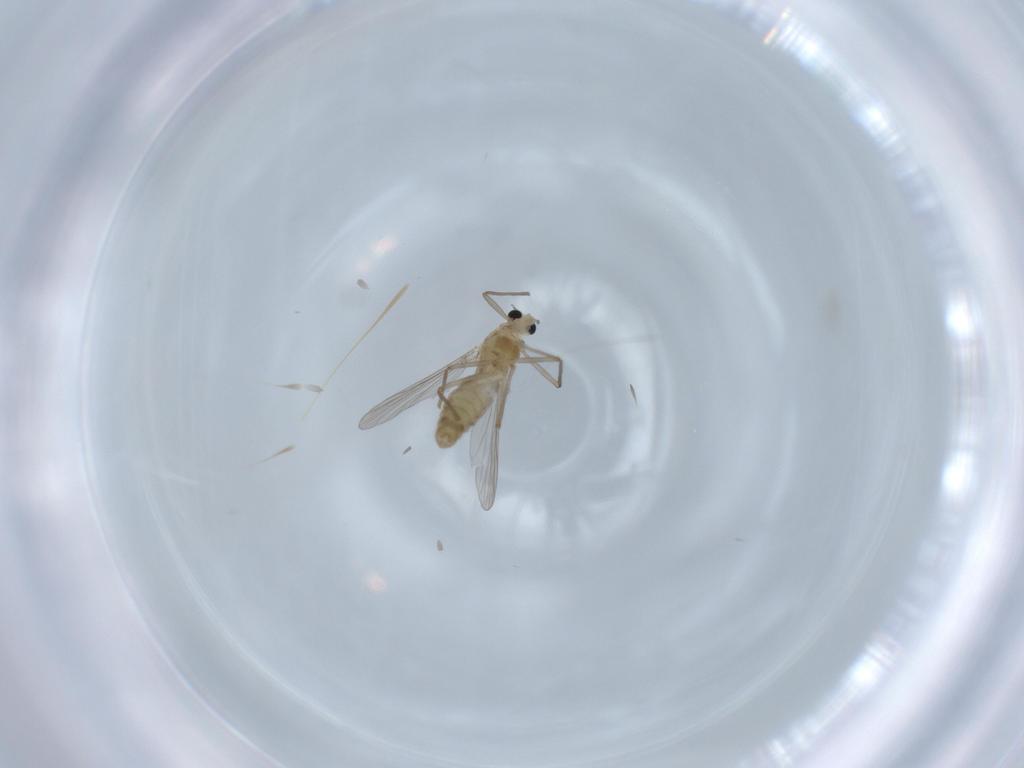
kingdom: Animalia
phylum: Arthropoda
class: Insecta
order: Diptera
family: Chironomidae
